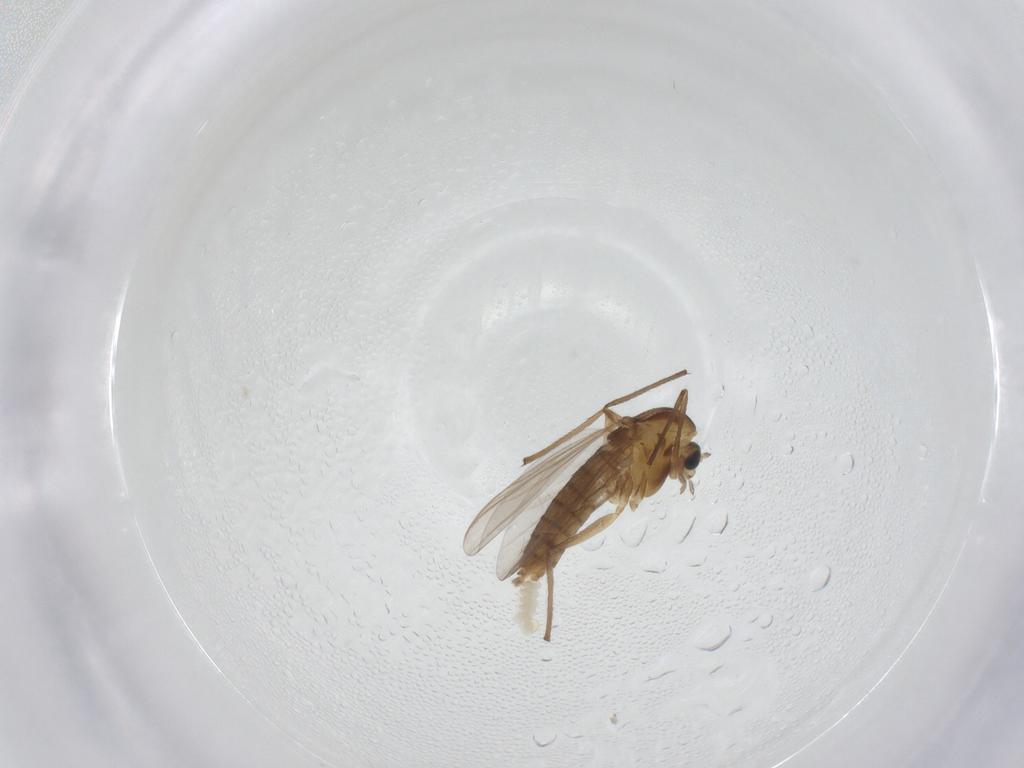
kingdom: Animalia
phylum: Arthropoda
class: Insecta
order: Diptera
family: Chironomidae
